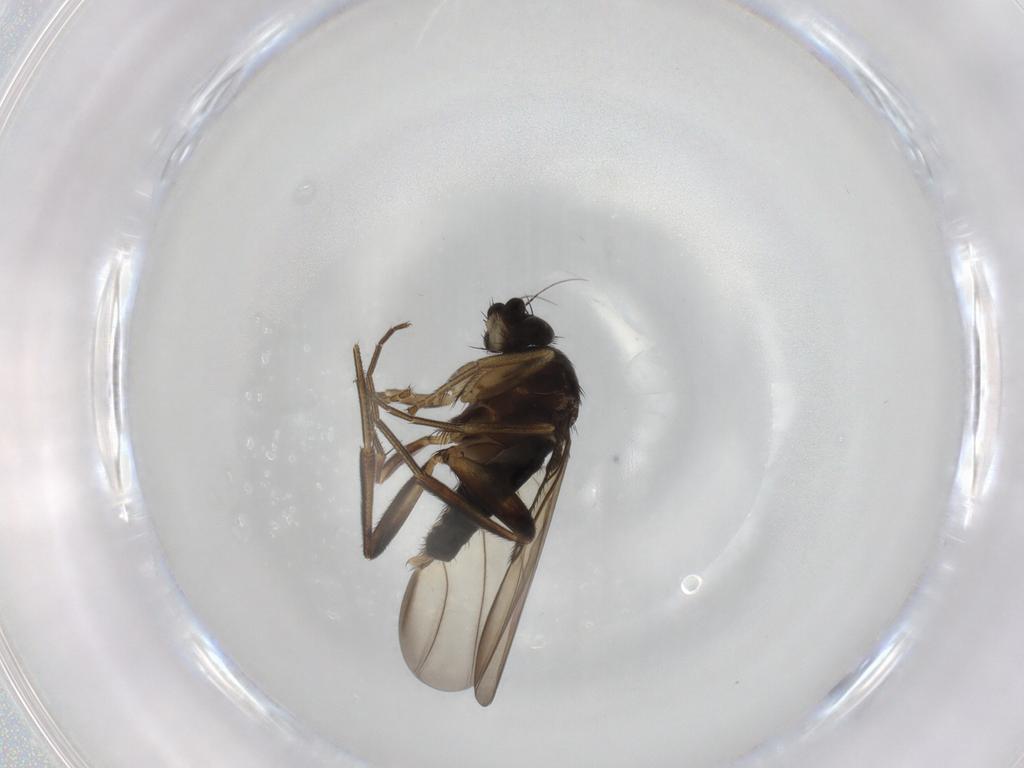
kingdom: Animalia
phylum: Arthropoda
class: Insecta
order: Diptera
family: Phoridae
